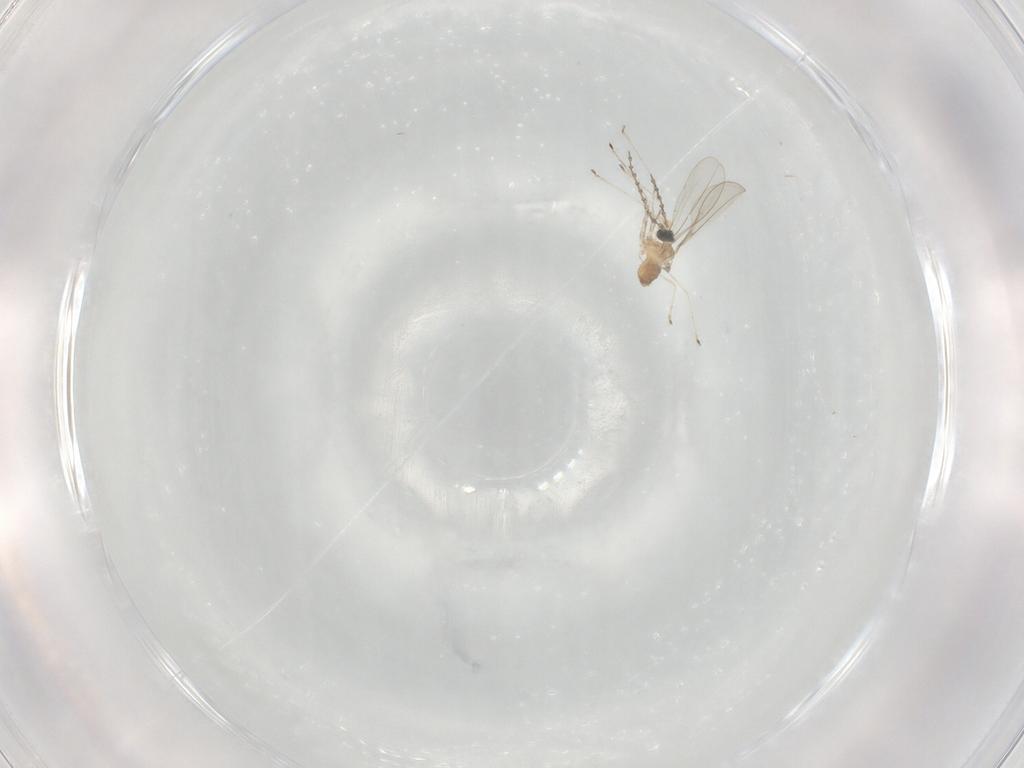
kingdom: Animalia
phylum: Arthropoda
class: Insecta
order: Diptera
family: Cecidomyiidae
